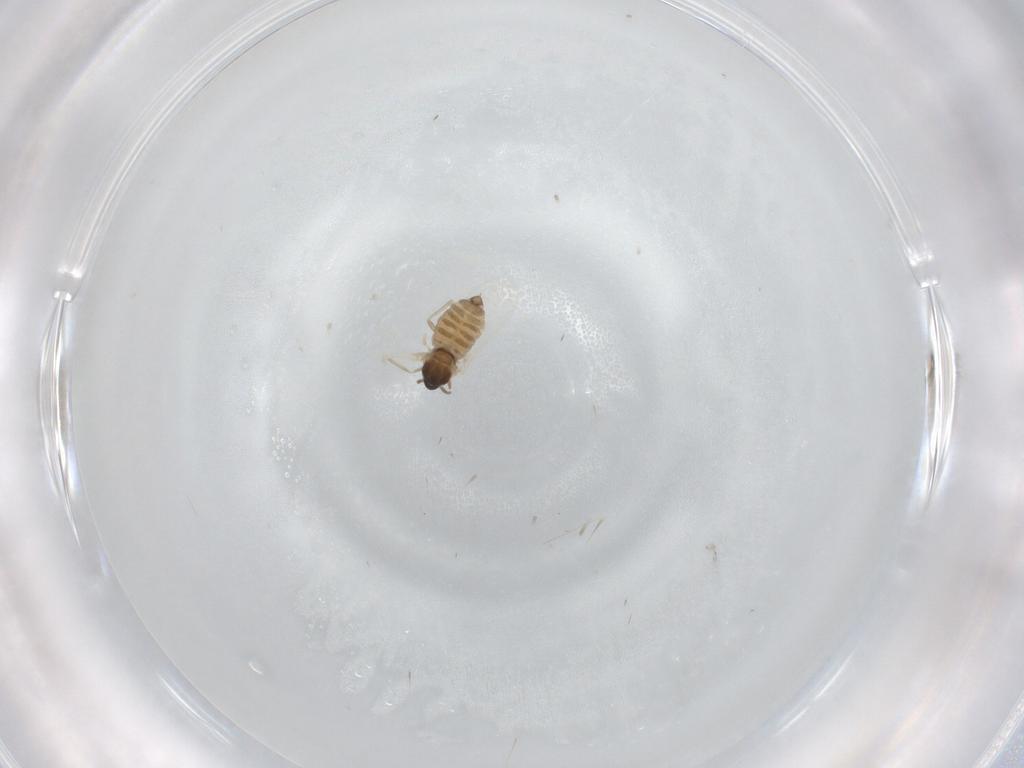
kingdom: Animalia
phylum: Arthropoda
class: Insecta
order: Diptera
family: Cecidomyiidae
